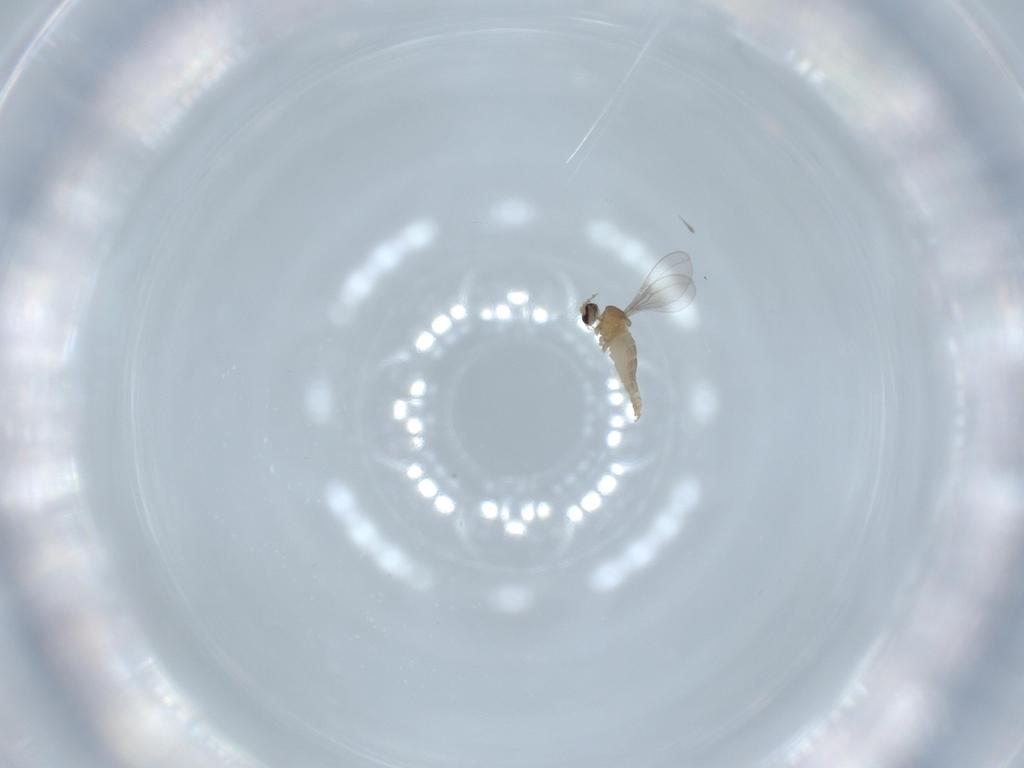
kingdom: Animalia
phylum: Arthropoda
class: Insecta
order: Diptera
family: Cecidomyiidae
